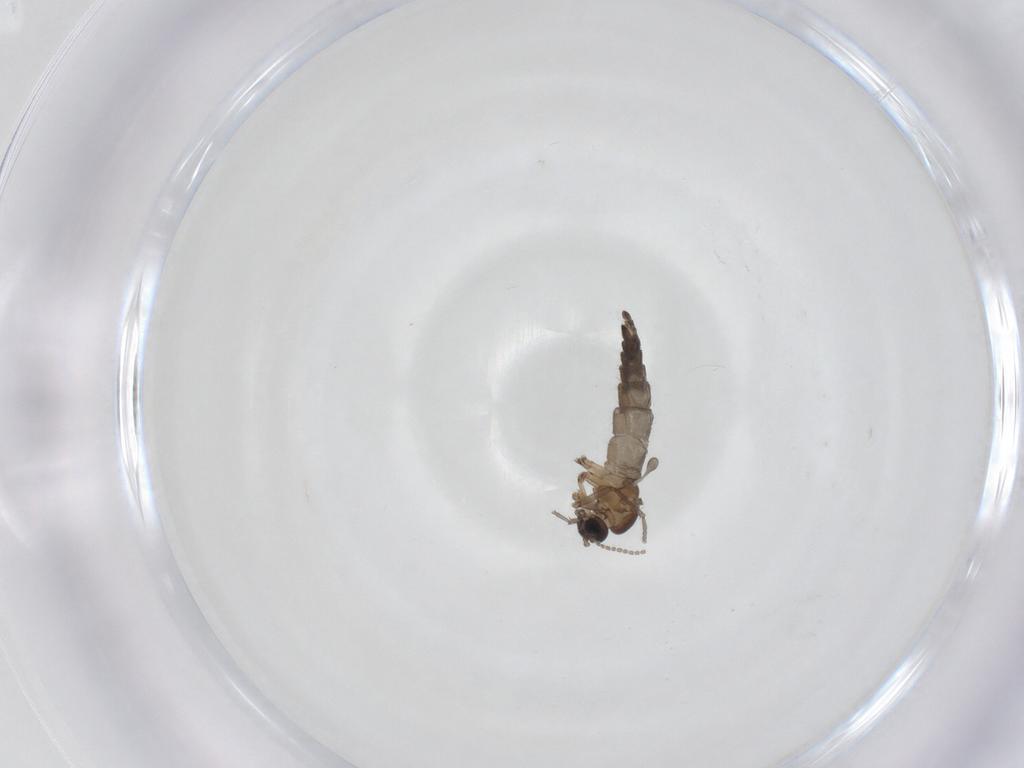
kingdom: Animalia
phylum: Arthropoda
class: Insecta
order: Diptera
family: Sciaridae
